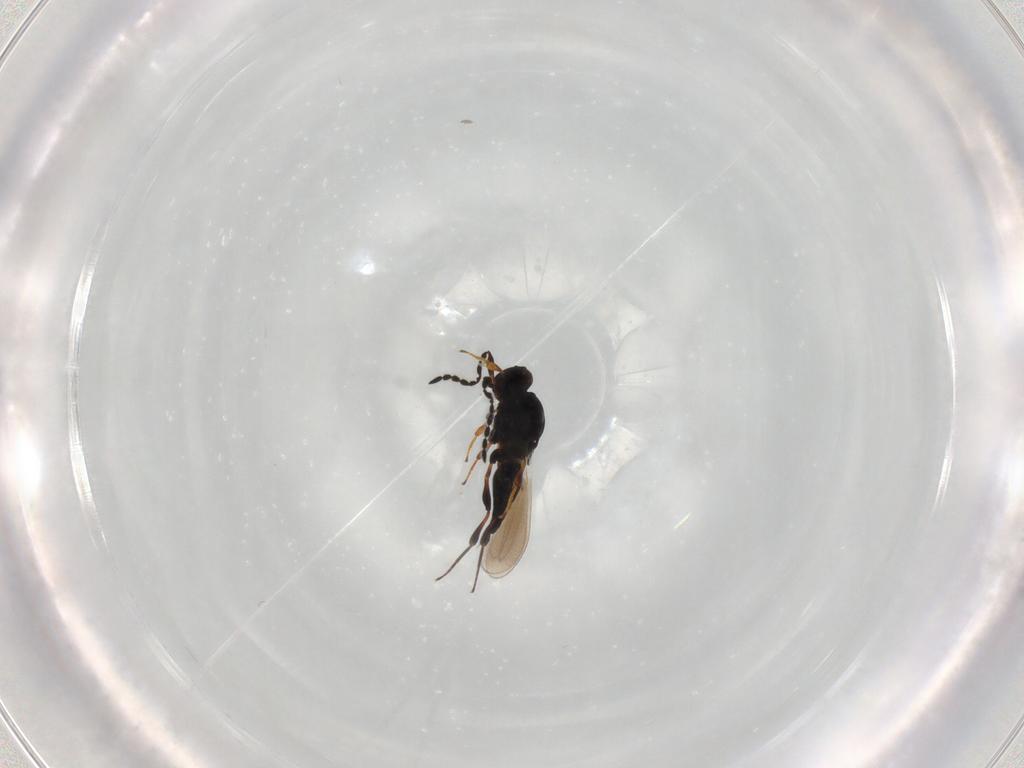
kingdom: Animalia
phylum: Arthropoda
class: Insecta
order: Hymenoptera
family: Platygastridae
